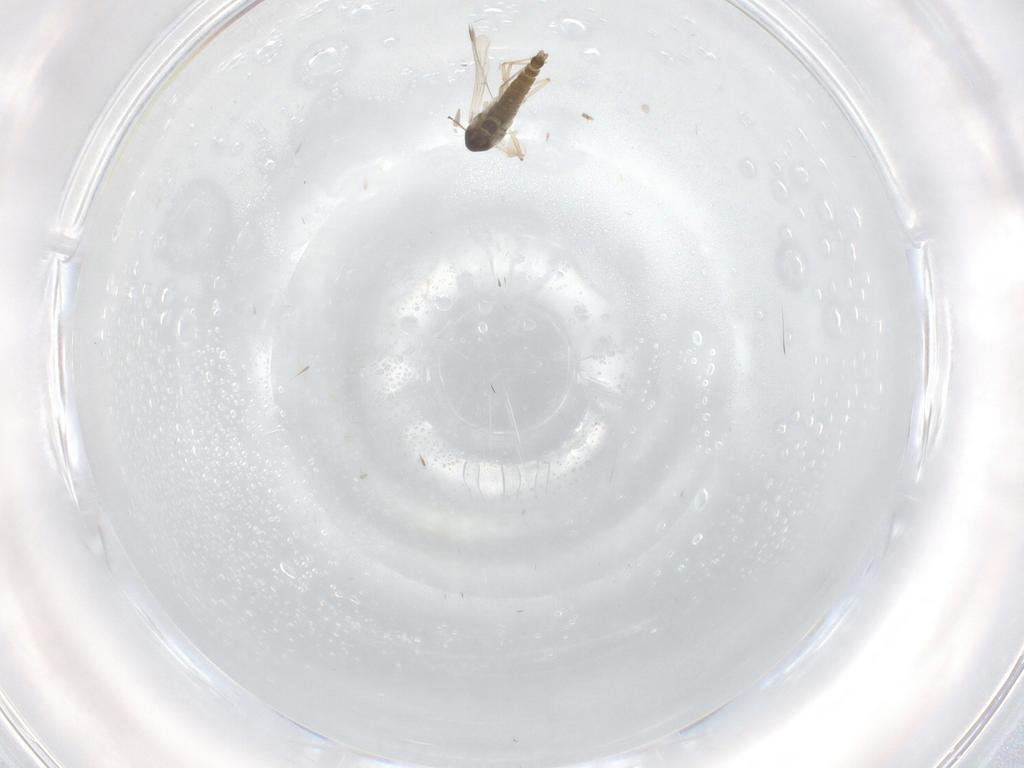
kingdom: Animalia
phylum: Arthropoda
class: Insecta
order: Diptera
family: Chironomidae
